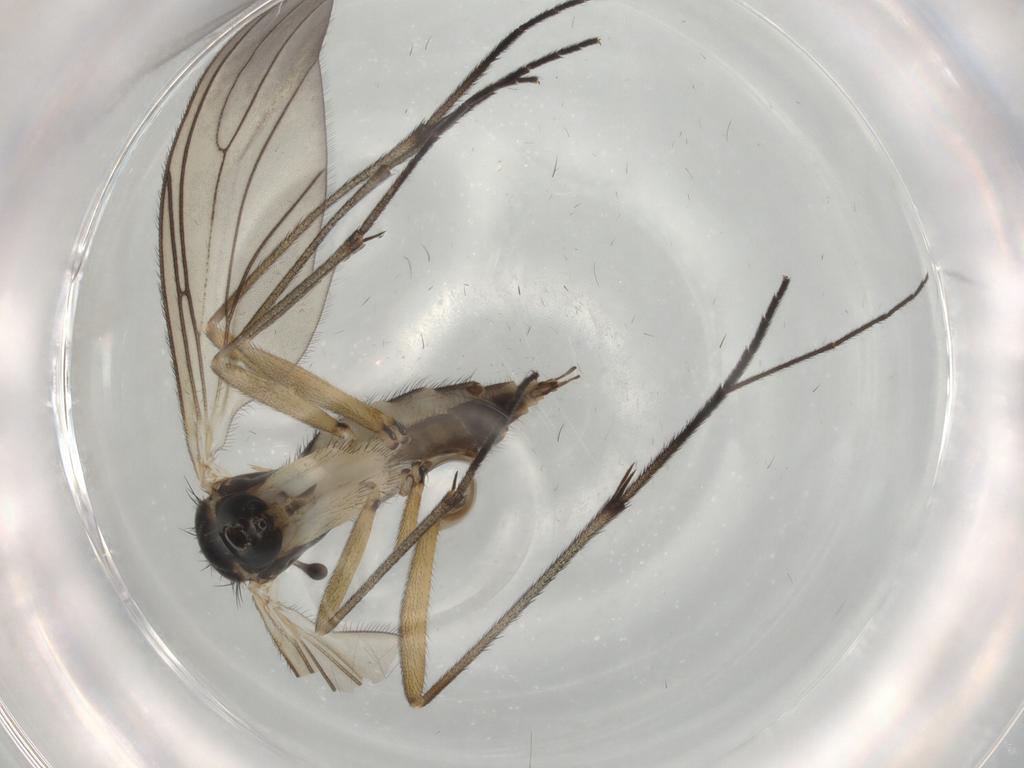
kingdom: Animalia
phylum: Arthropoda
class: Insecta
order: Diptera
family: Sciaridae
